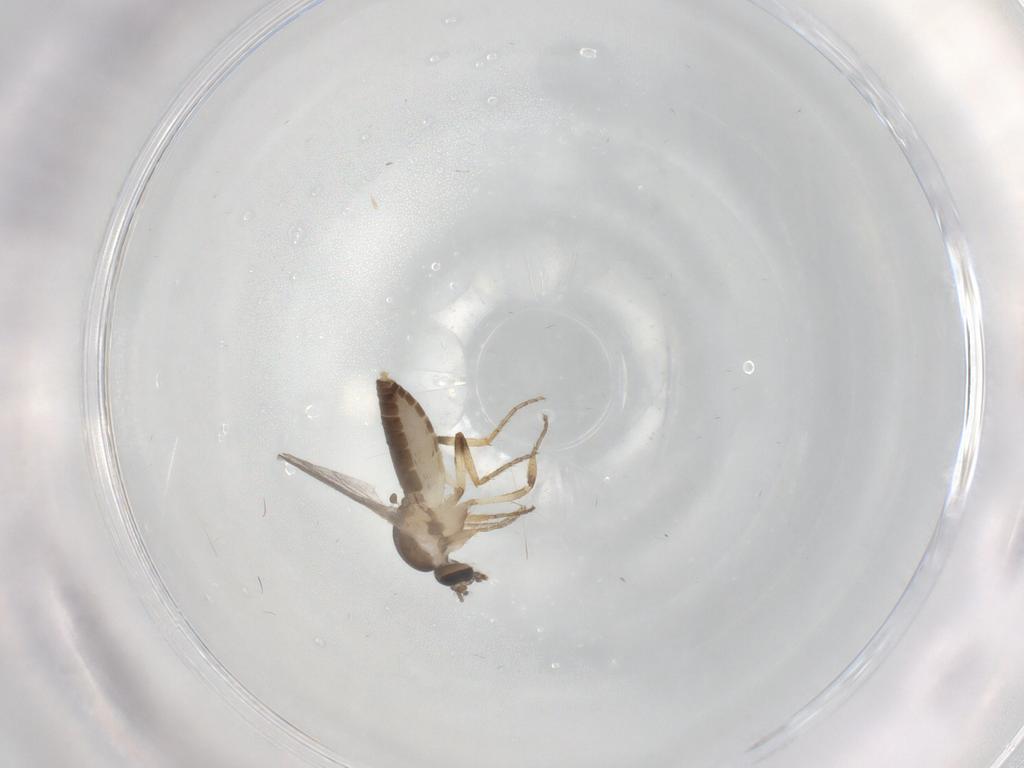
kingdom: Animalia
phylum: Arthropoda
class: Insecta
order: Diptera
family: Ceratopogonidae
